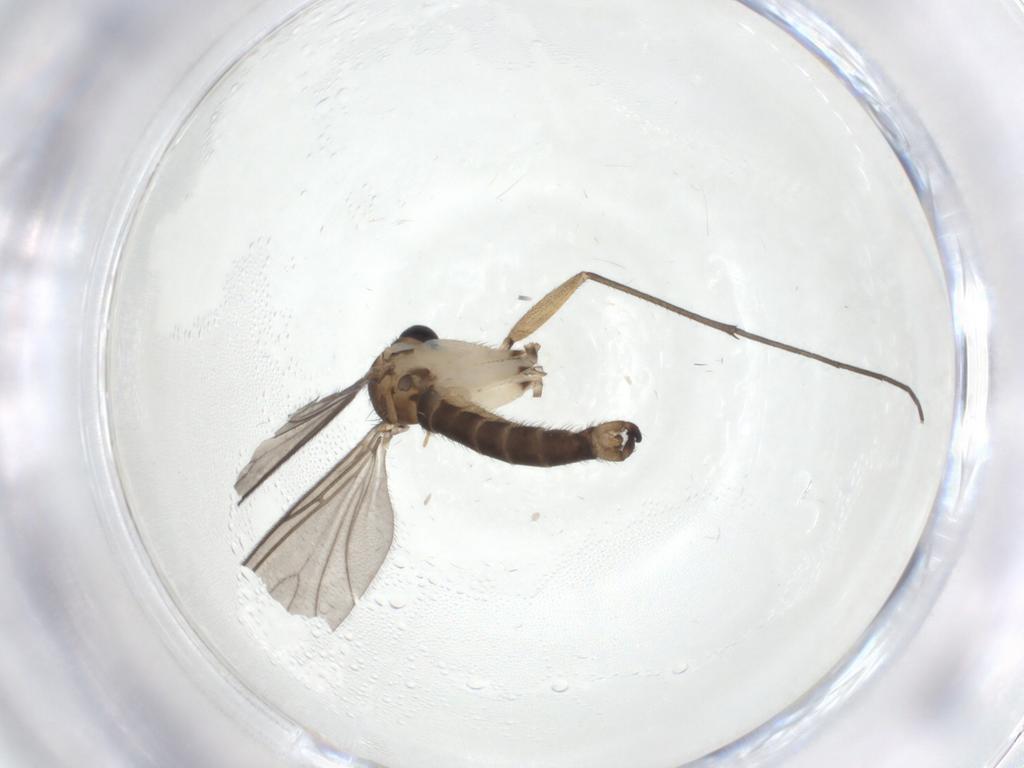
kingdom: Animalia
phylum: Arthropoda
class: Insecta
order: Diptera
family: Sciaridae
